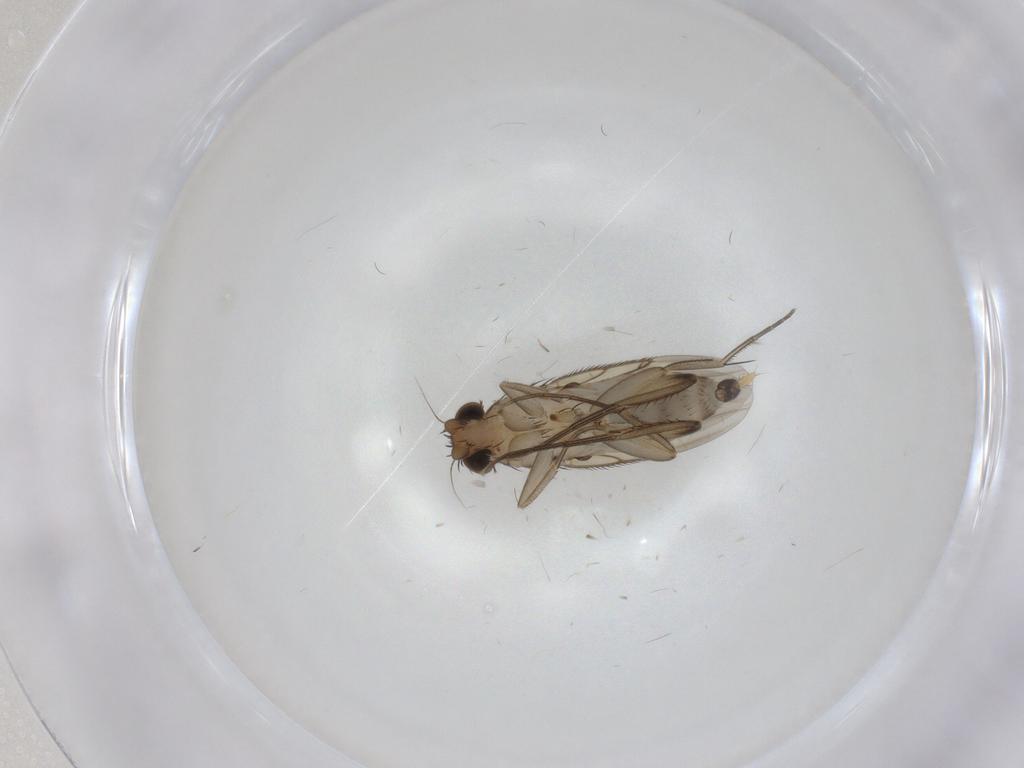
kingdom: Animalia
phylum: Arthropoda
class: Insecta
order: Diptera
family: Psychodidae
